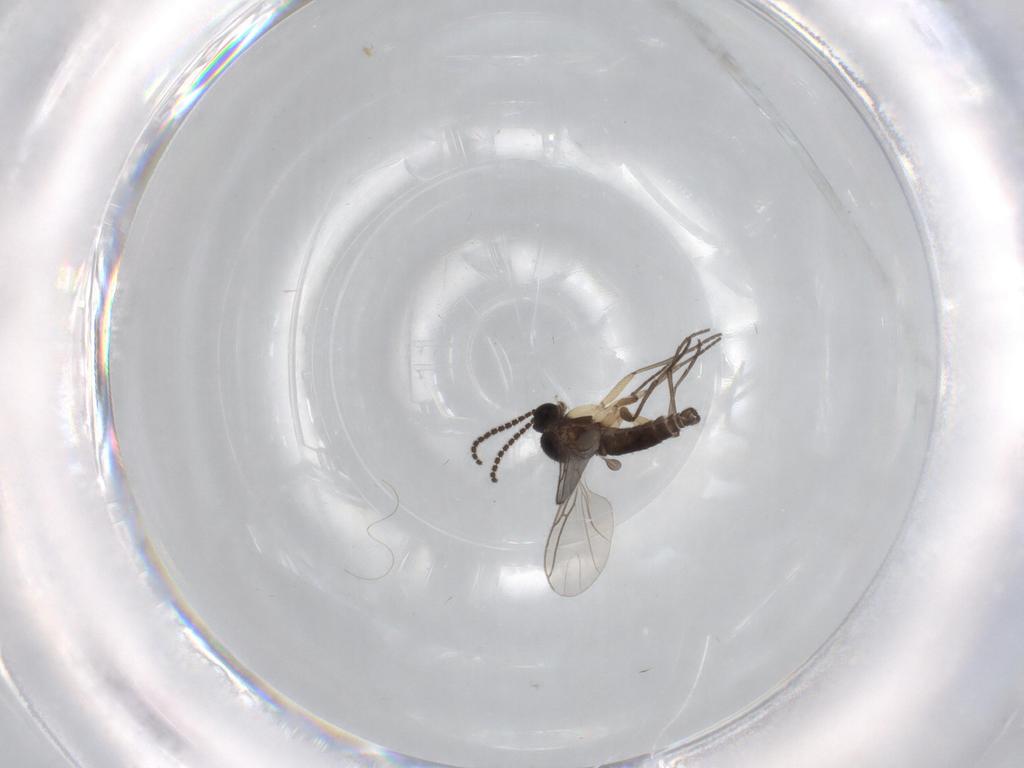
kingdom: Animalia
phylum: Arthropoda
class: Insecta
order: Diptera
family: Sciaridae
